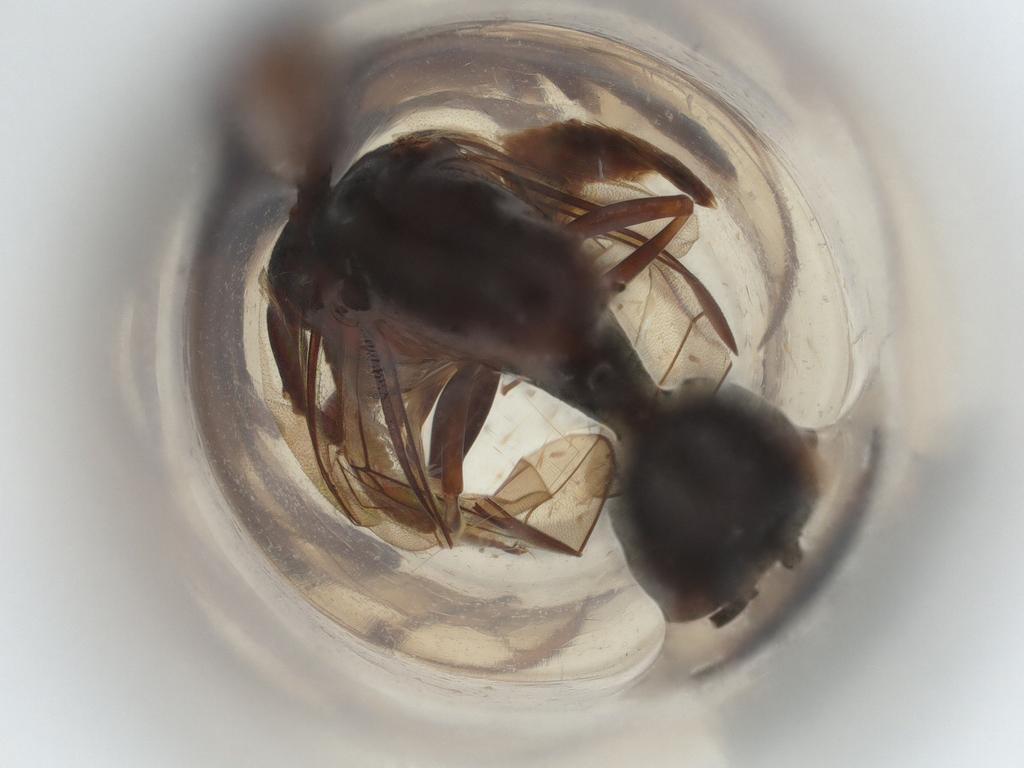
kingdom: Animalia
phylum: Arthropoda
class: Insecta
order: Hymenoptera
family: Gasteruptiidae
